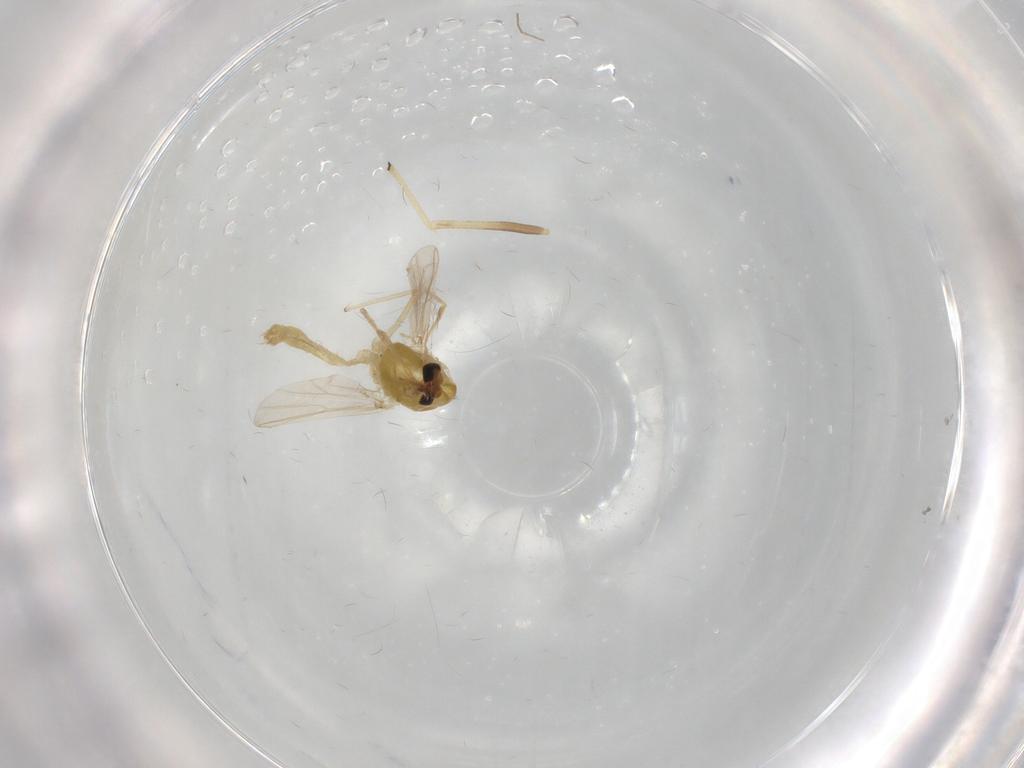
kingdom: Animalia
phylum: Arthropoda
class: Insecta
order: Diptera
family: Chironomidae
